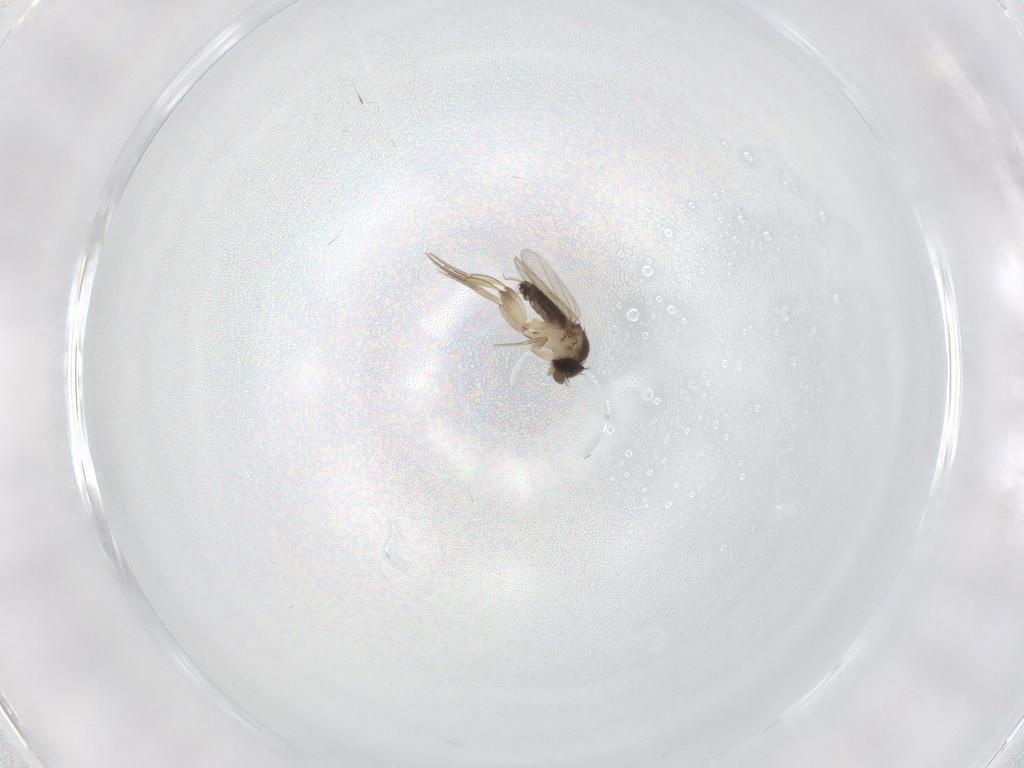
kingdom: Animalia
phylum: Arthropoda
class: Insecta
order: Diptera
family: Phoridae
